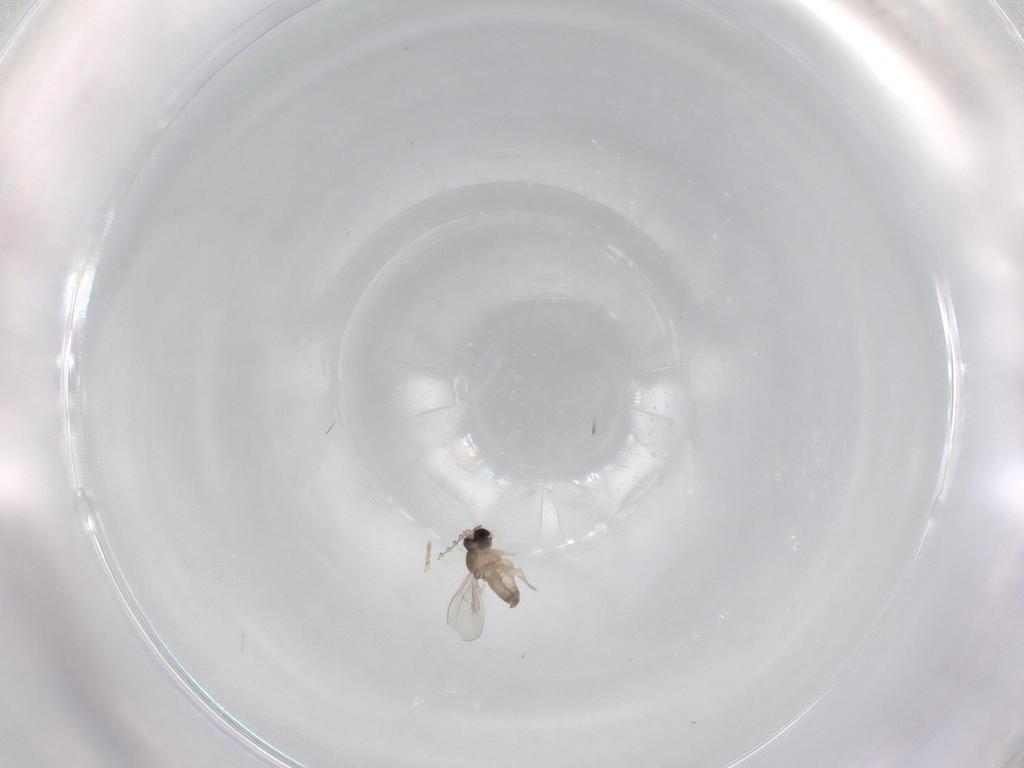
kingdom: Animalia
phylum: Arthropoda
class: Insecta
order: Diptera
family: Cecidomyiidae
